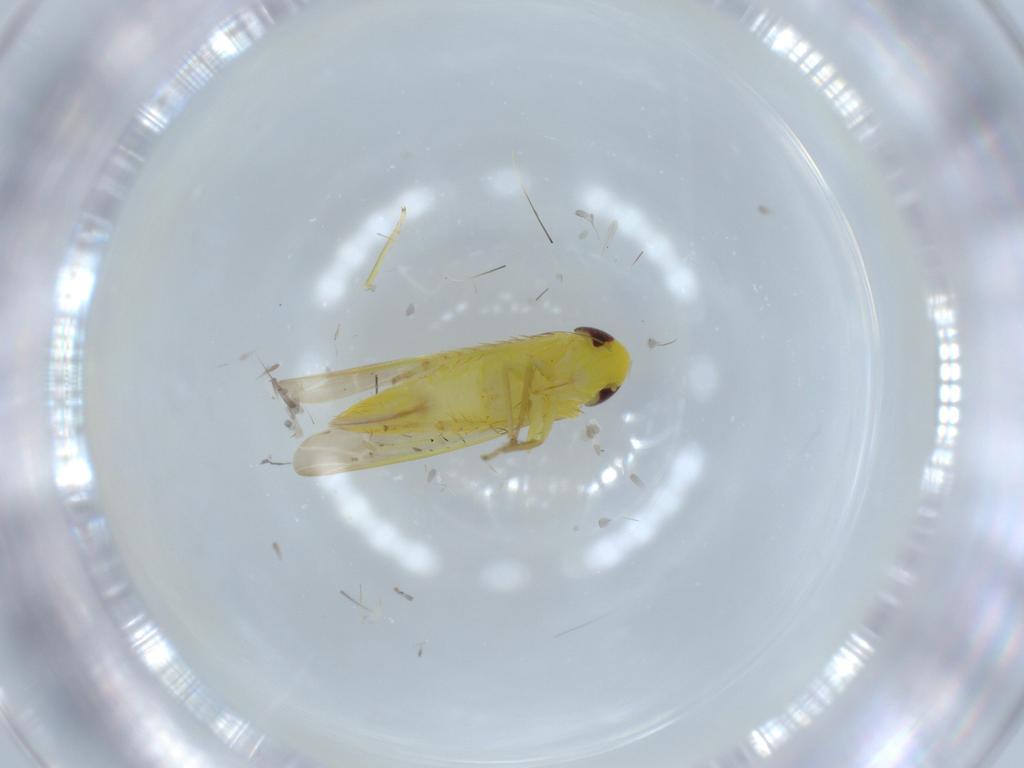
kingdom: Animalia
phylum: Arthropoda
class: Insecta
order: Hemiptera
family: Cicadellidae
